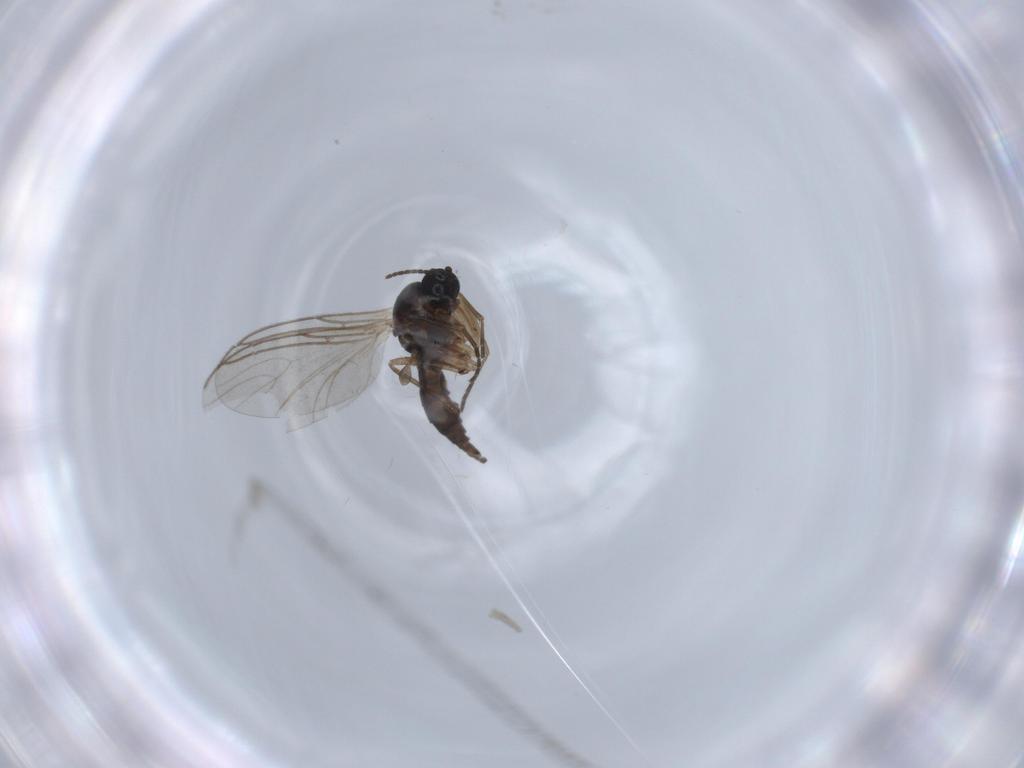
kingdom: Animalia
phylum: Arthropoda
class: Insecta
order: Diptera
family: Sciaridae
